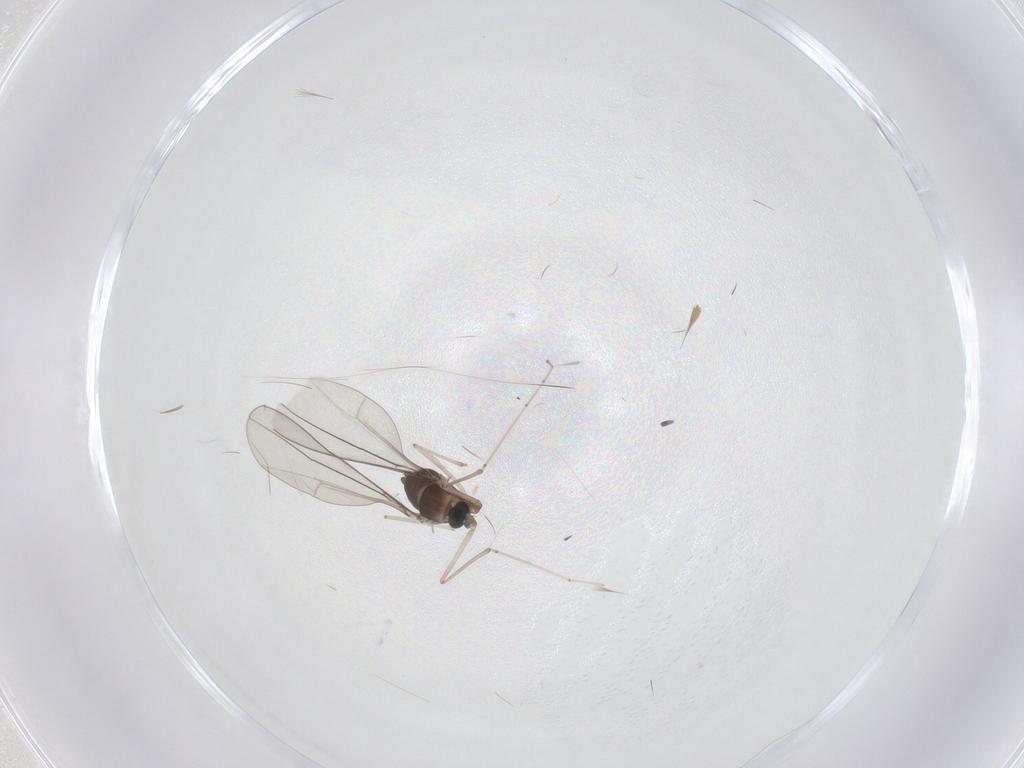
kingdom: Animalia
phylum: Arthropoda
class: Insecta
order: Diptera
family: Cecidomyiidae
